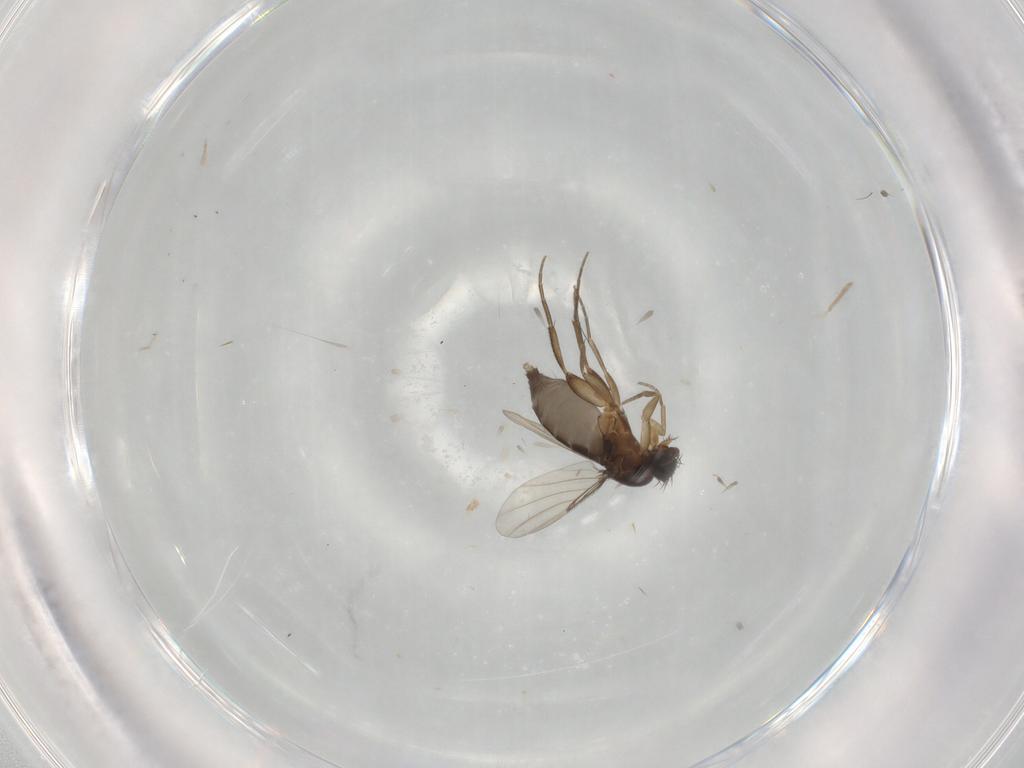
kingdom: Animalia
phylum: Arthropoda
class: Insecta
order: Diptera
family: Phoridae
